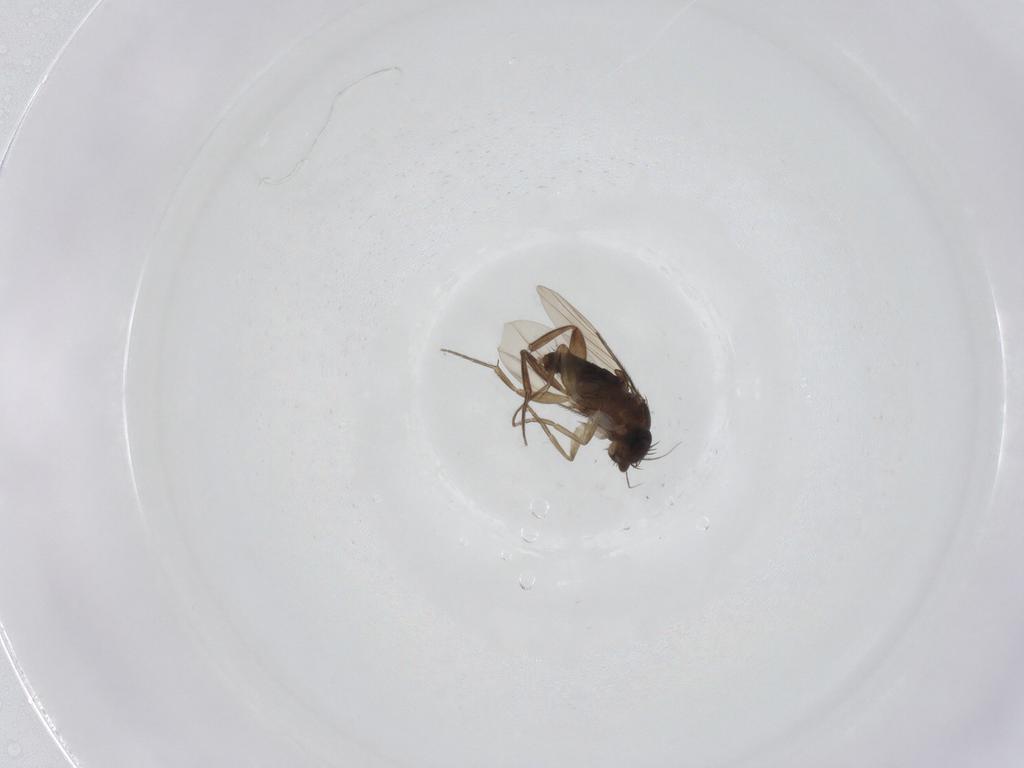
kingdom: Animalia
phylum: Arthropoda
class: Insecta
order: Diptera
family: Phoridae
